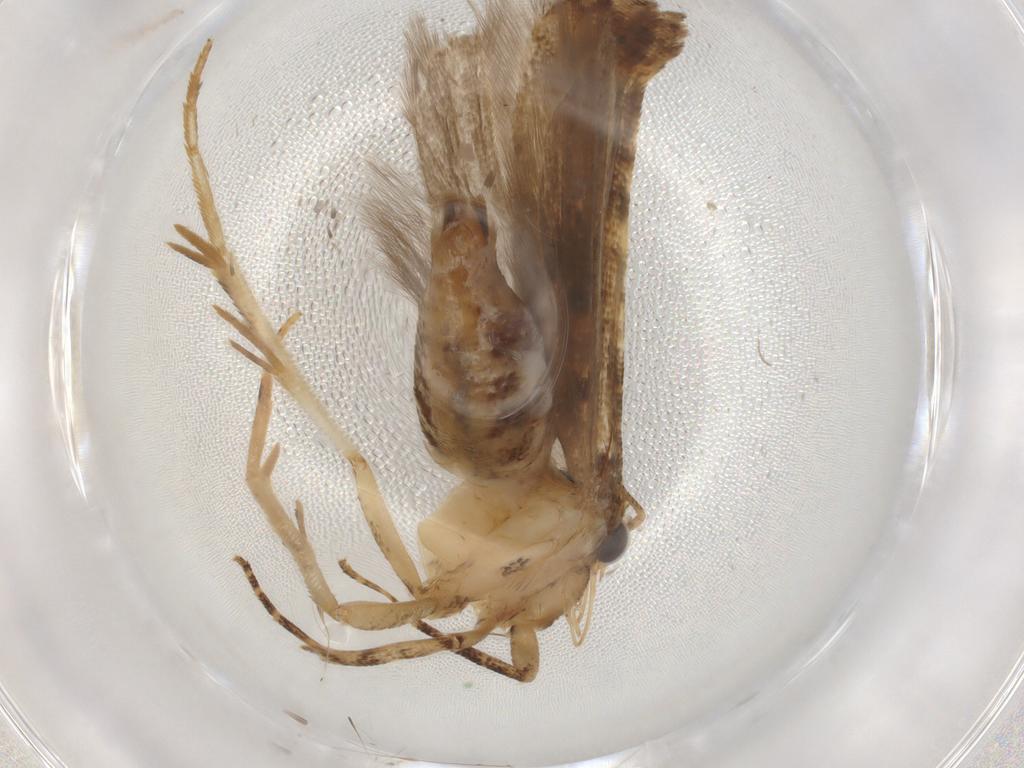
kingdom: Animalia
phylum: Arthropoda
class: Insecta
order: Lepidoptera
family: Gelechiidae
